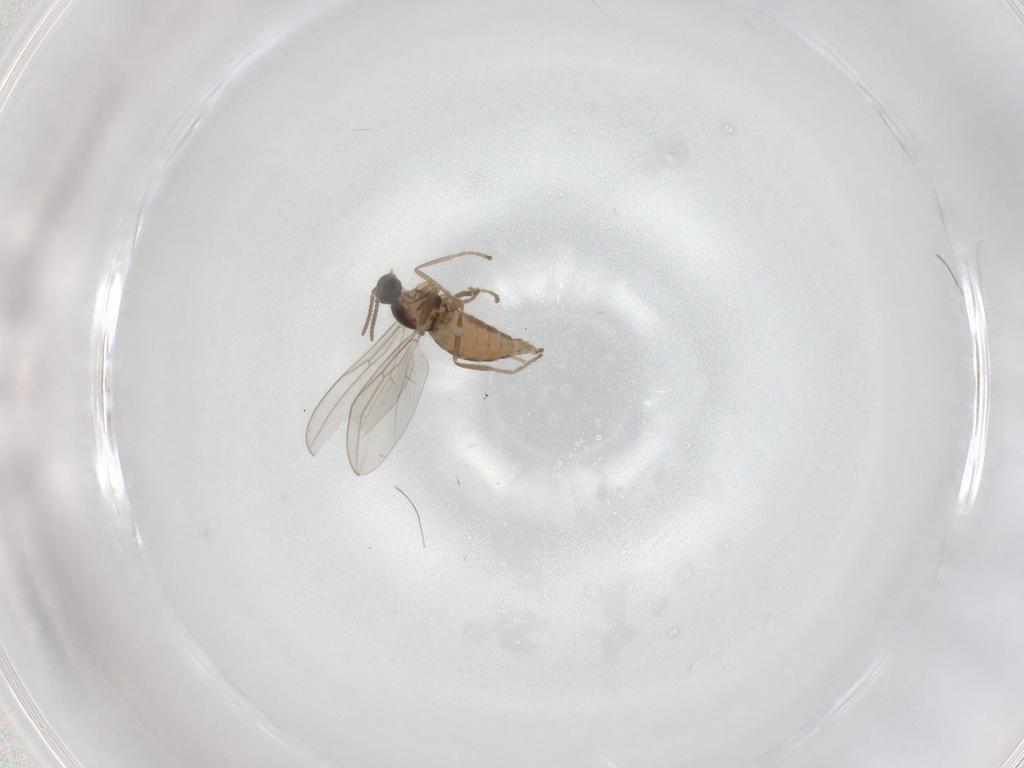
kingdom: Animalia
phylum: Arthropoda
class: Insecta
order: Diptera
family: Cecidomyiidae
